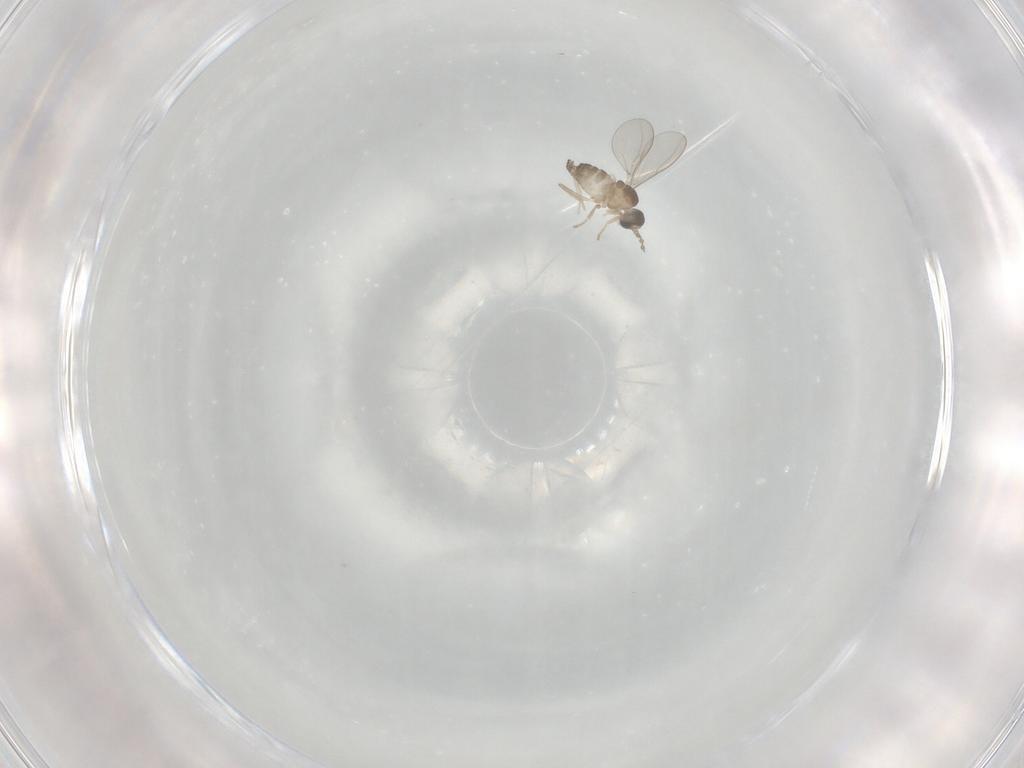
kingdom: Animalia
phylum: Arthropoda
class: Insecta
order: Diptera
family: Cecidomyiidae
